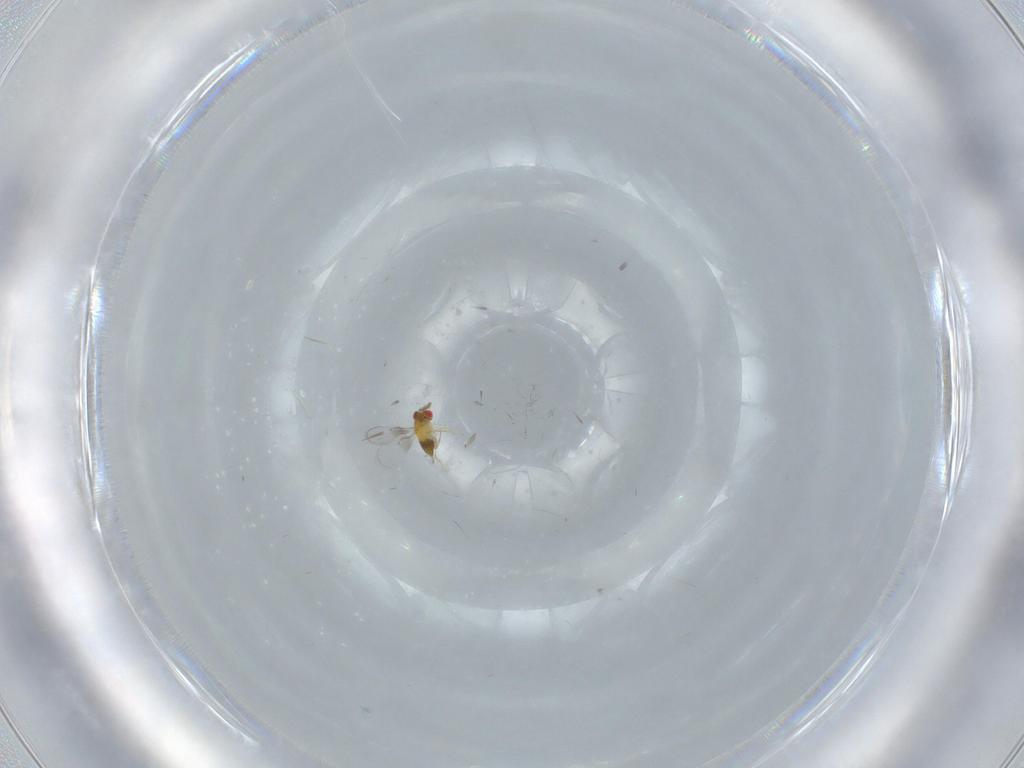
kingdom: Animalia
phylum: Arthropoda
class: Insecta
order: Hymenoptera
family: Trichogrammatidae
